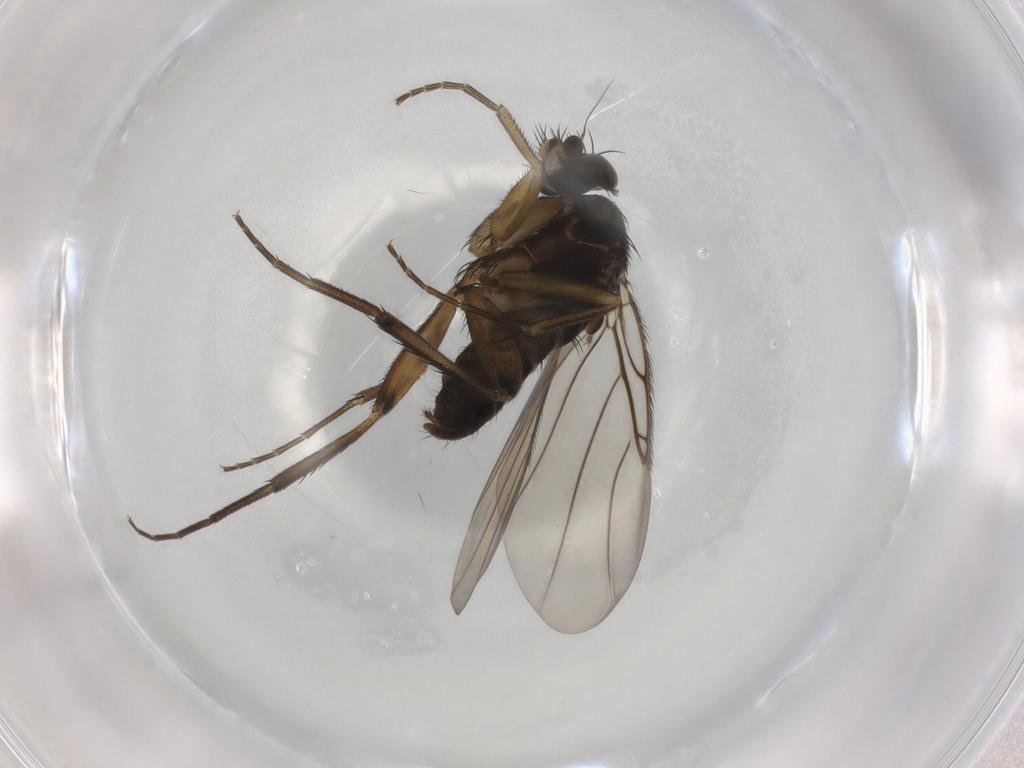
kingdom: Animalia
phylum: Arthropoda
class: Insecta
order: Diptera
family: Phoridae
